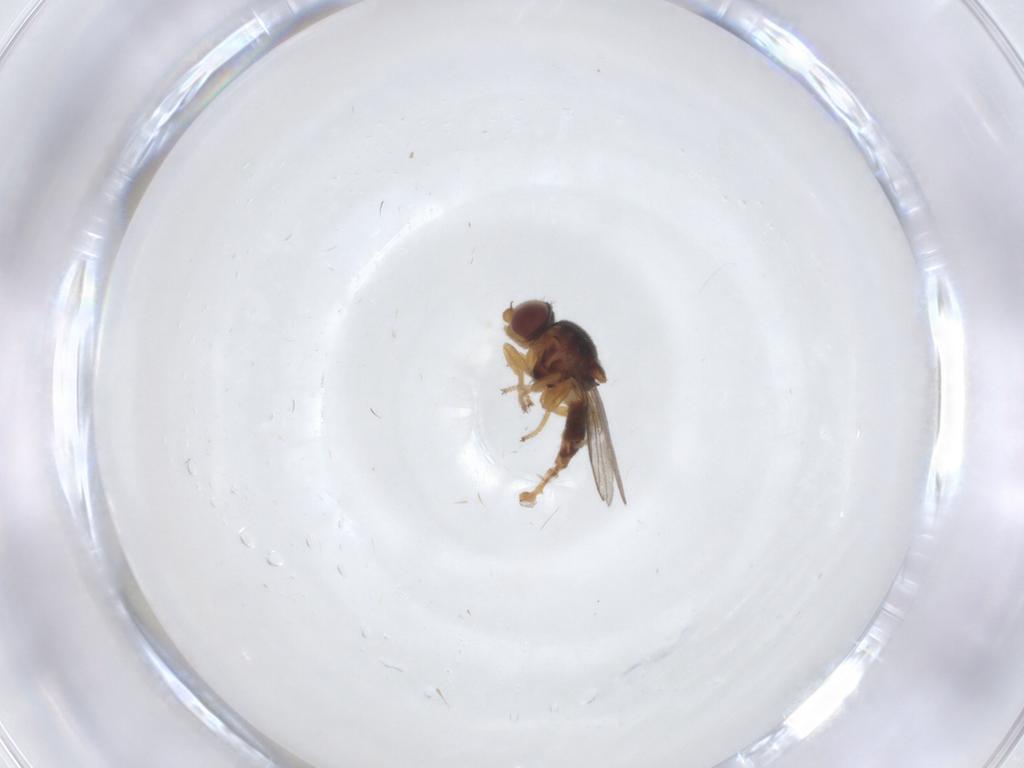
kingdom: Animalia
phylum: Arthropoda
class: Insecta
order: Diptera
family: Chloropidae
